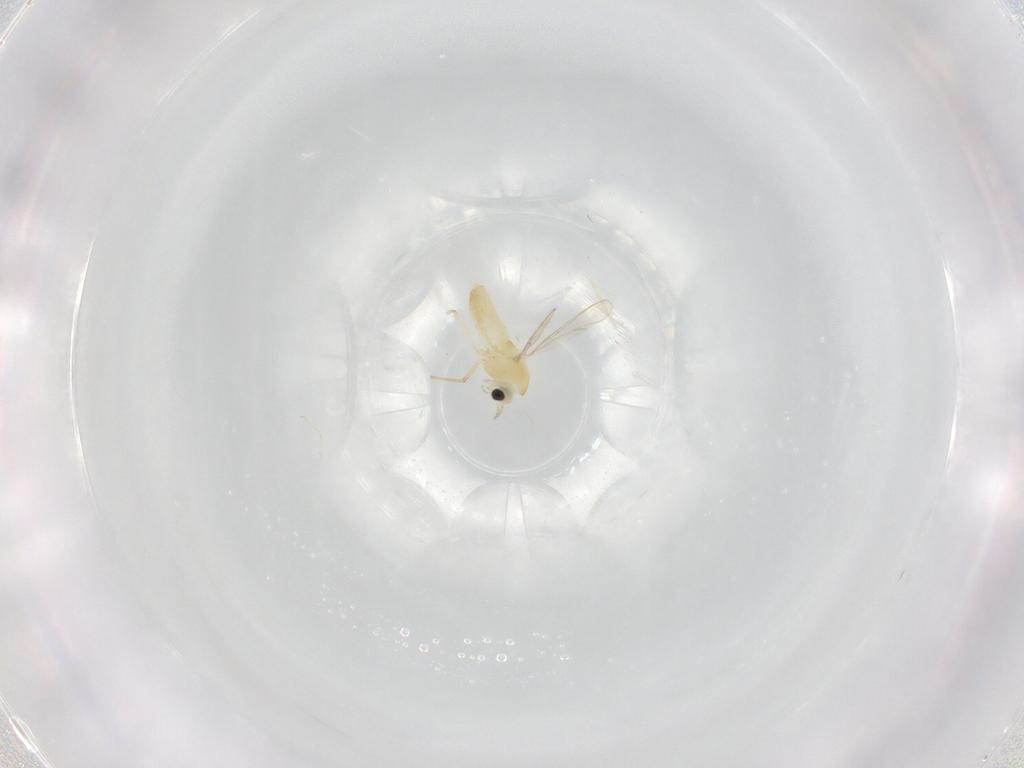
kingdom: Animalia
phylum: Arthropoda
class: Insecta
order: Diptera
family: Chironomidae
